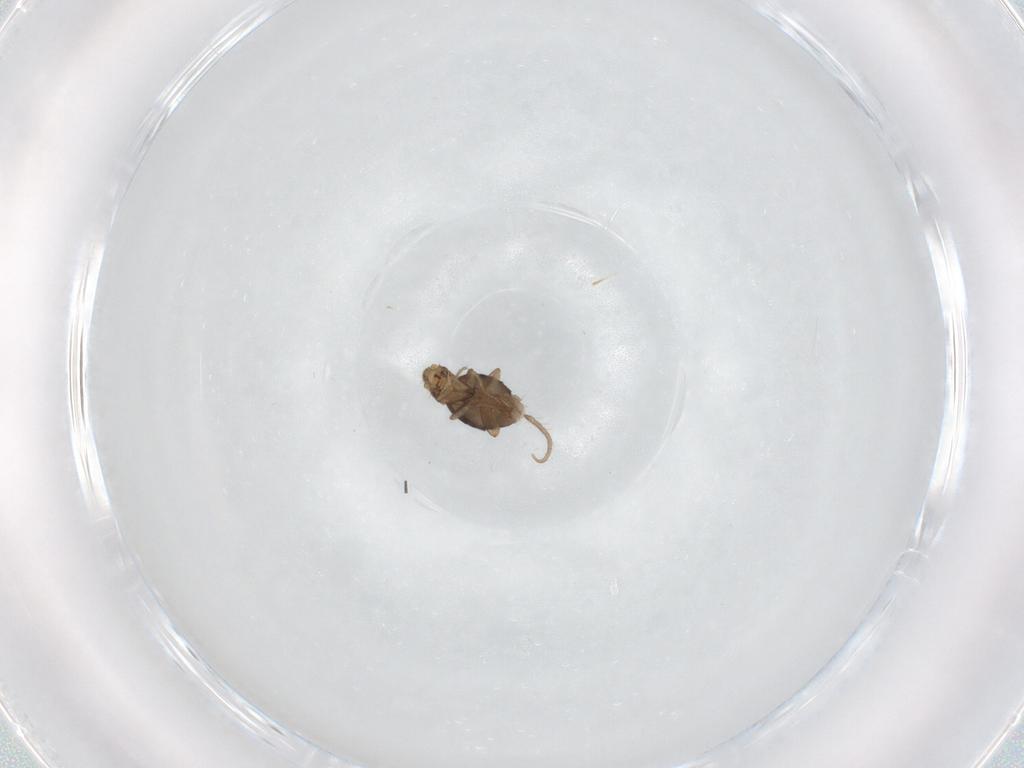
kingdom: Animalia
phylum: Arthropoda
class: Insecta
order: Diptera
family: Phoridae
